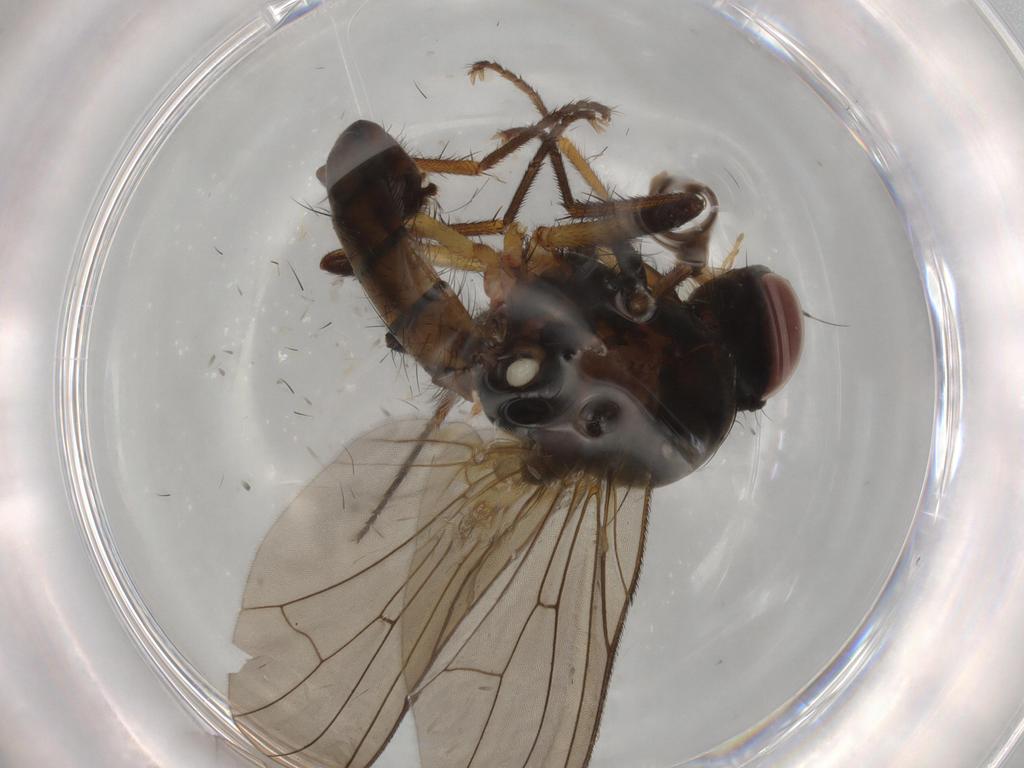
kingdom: Animalia
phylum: Arthropoda
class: Insecta
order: Diptera
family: Anthomyiidae
